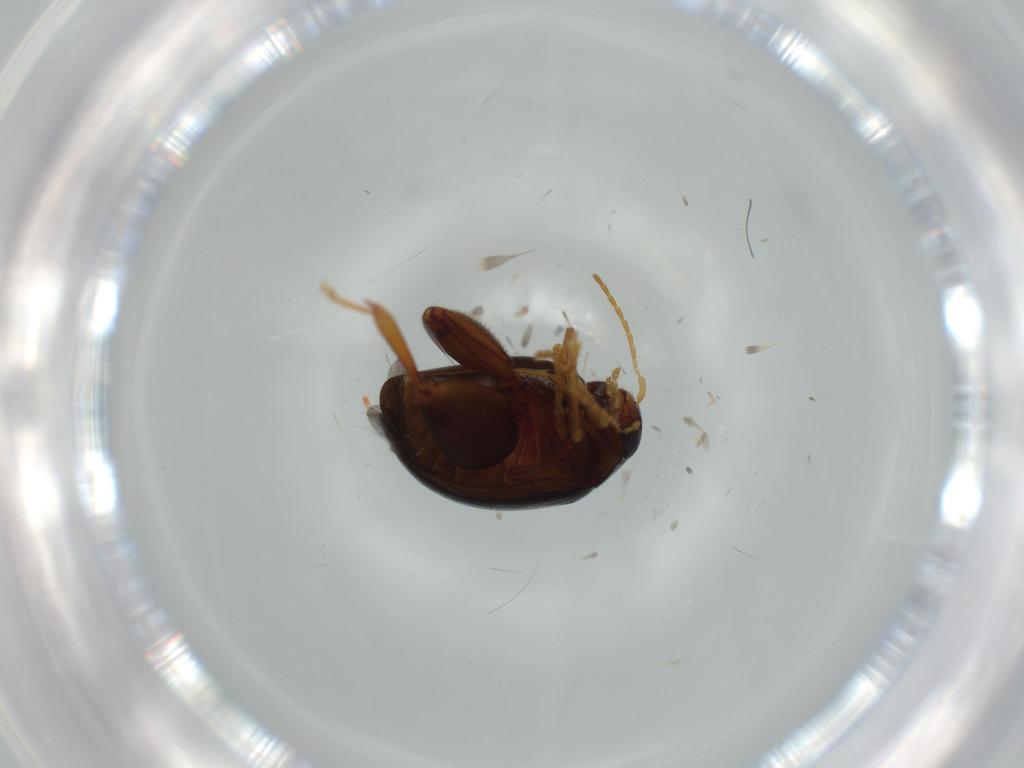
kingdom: Animalia
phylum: Arthropoda
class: Insecta
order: Coleoptera
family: Chrysomelidae
